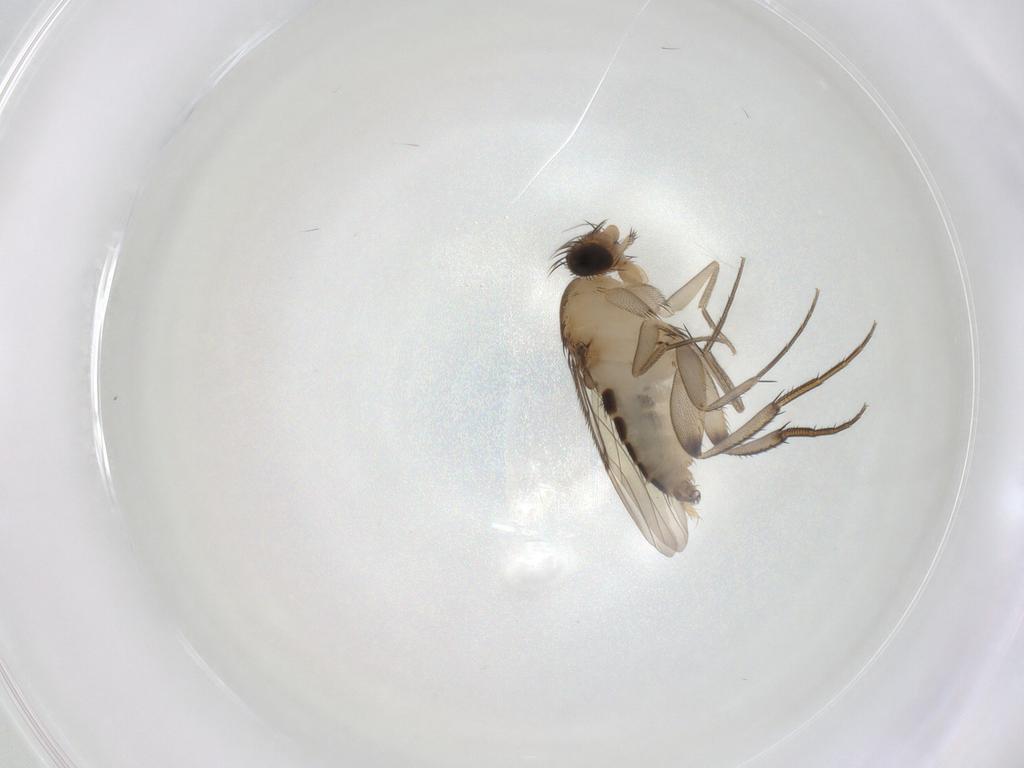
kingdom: Animalia
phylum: Arthropoda
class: Insecta
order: Diptera
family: Phoridae
